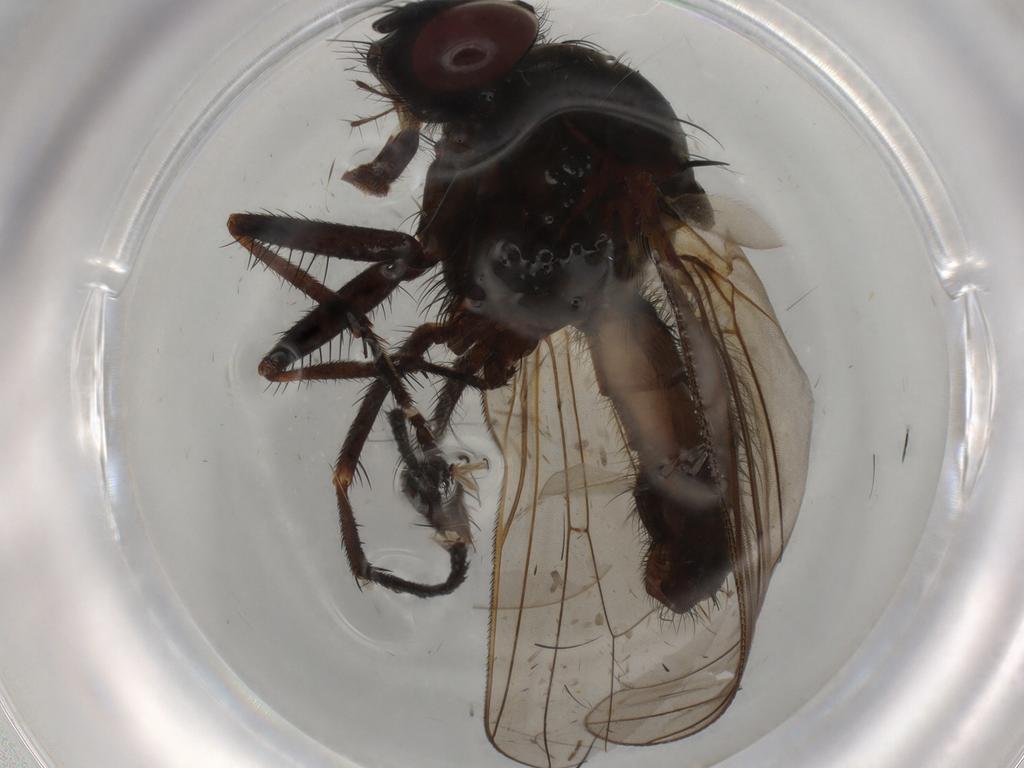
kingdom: Animalia
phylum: Arthropoda
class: Insecta
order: Diptera
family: Anthomyiidae
